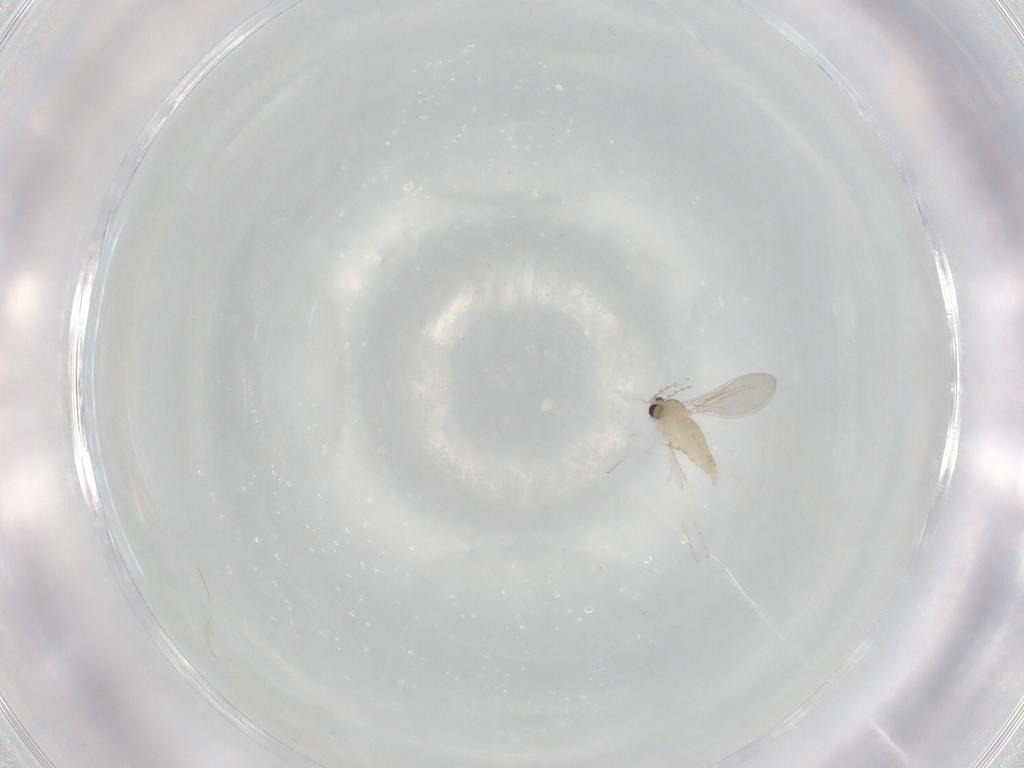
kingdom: Animalia
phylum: Arthropoda
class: Insecta
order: Diptera
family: Cecidomyiidae
